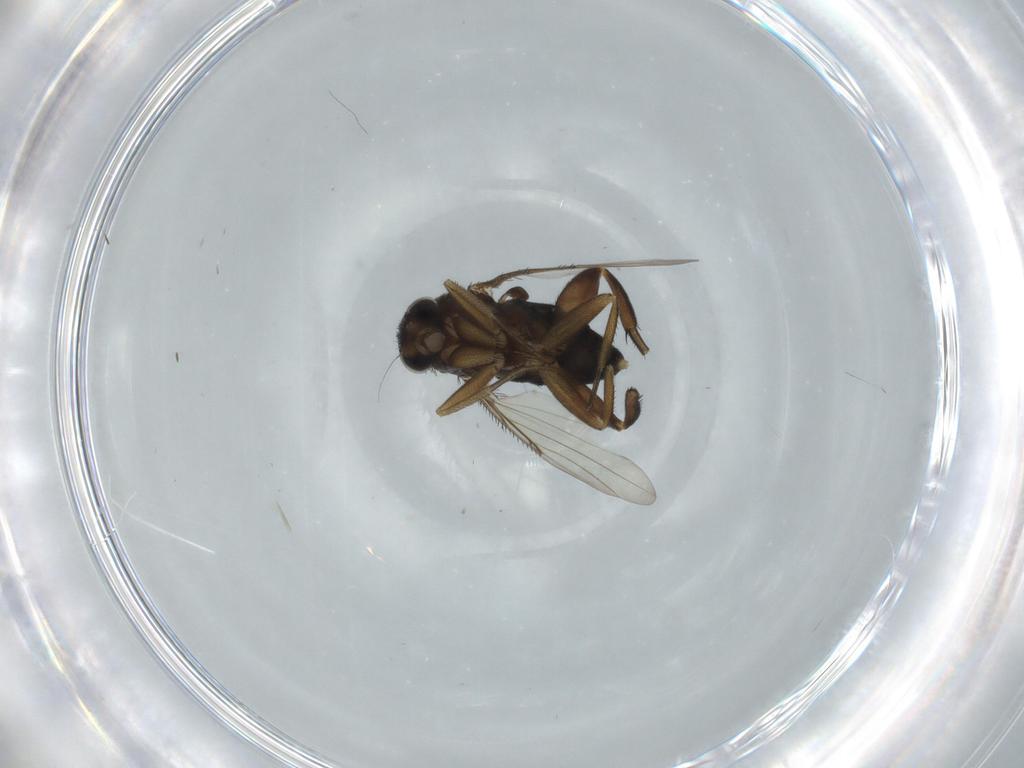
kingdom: Animalia
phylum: Arthropoda
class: Insecta
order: Diptera
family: Phoridae
